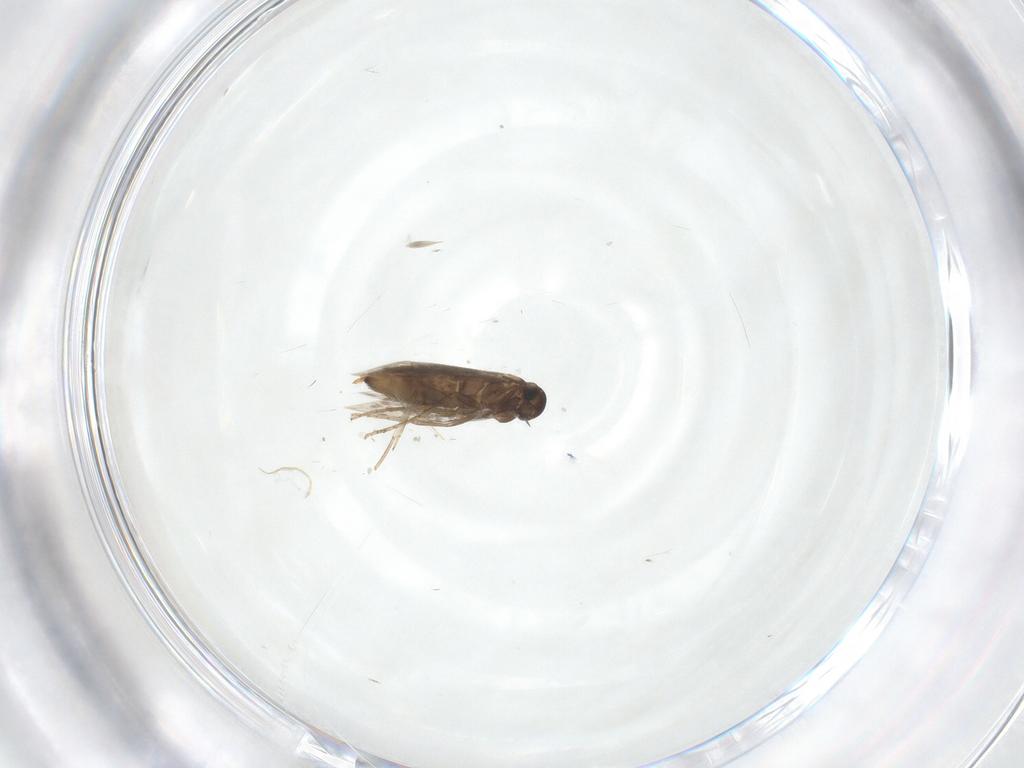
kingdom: Animalia
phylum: Arthropoda
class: Insecta
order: Lepidoptera
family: Heliozelidae
